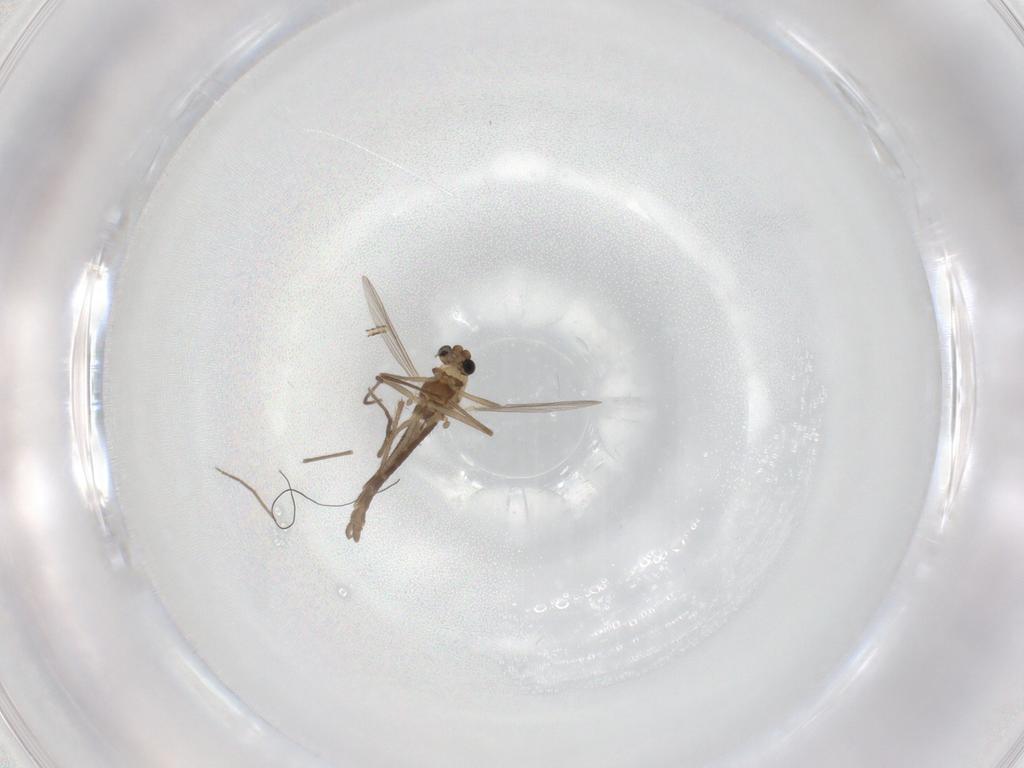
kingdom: Animalia
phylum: Arthropoda
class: Insecta
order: Diptera
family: Chironomidae
